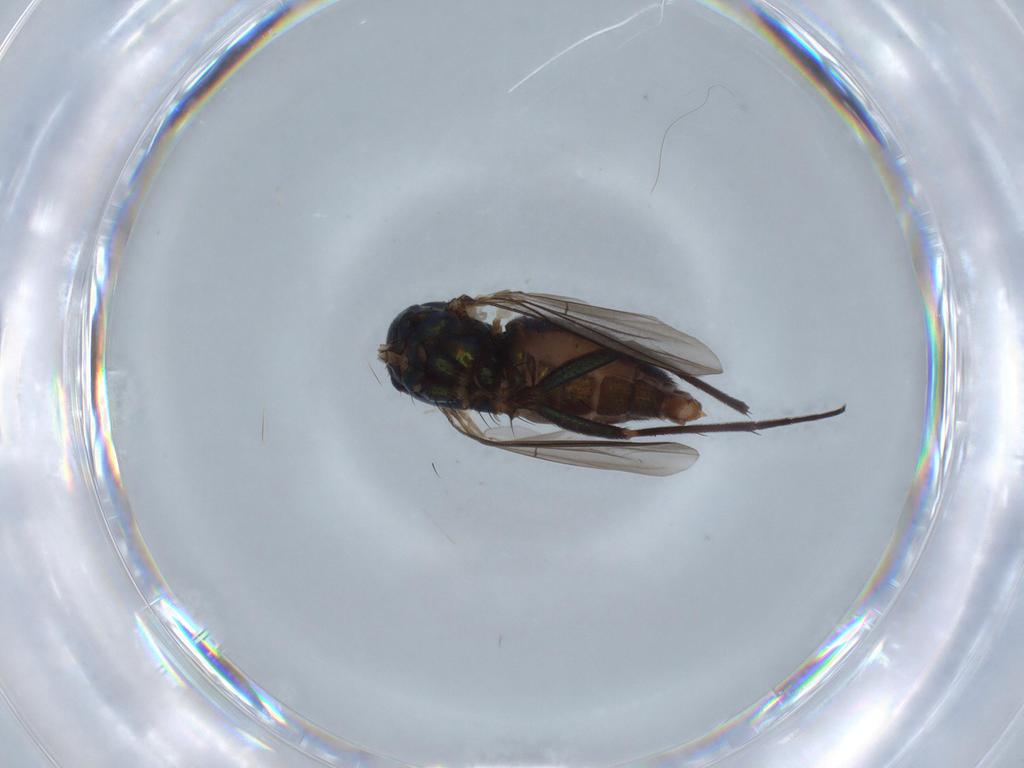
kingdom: Animalia
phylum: Arthropoda
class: Insecta
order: Diptera
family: Dolichopodidae
